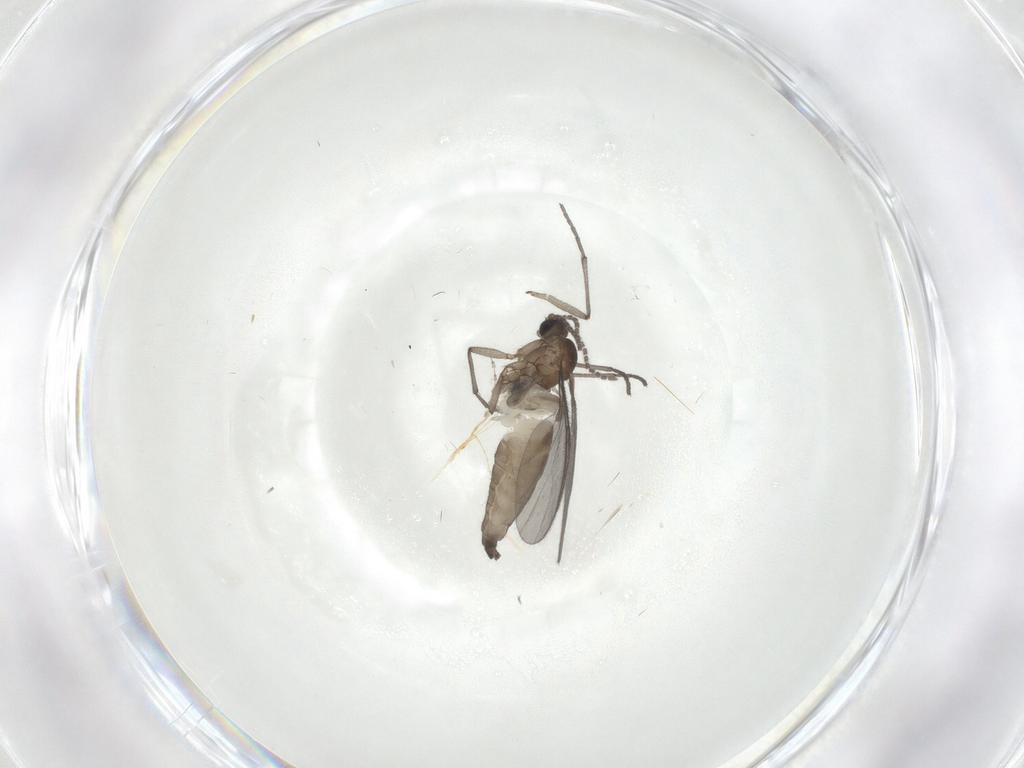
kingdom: Animalia
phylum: Arthropoda
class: Insecta
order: Diptera
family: Sciaridae
